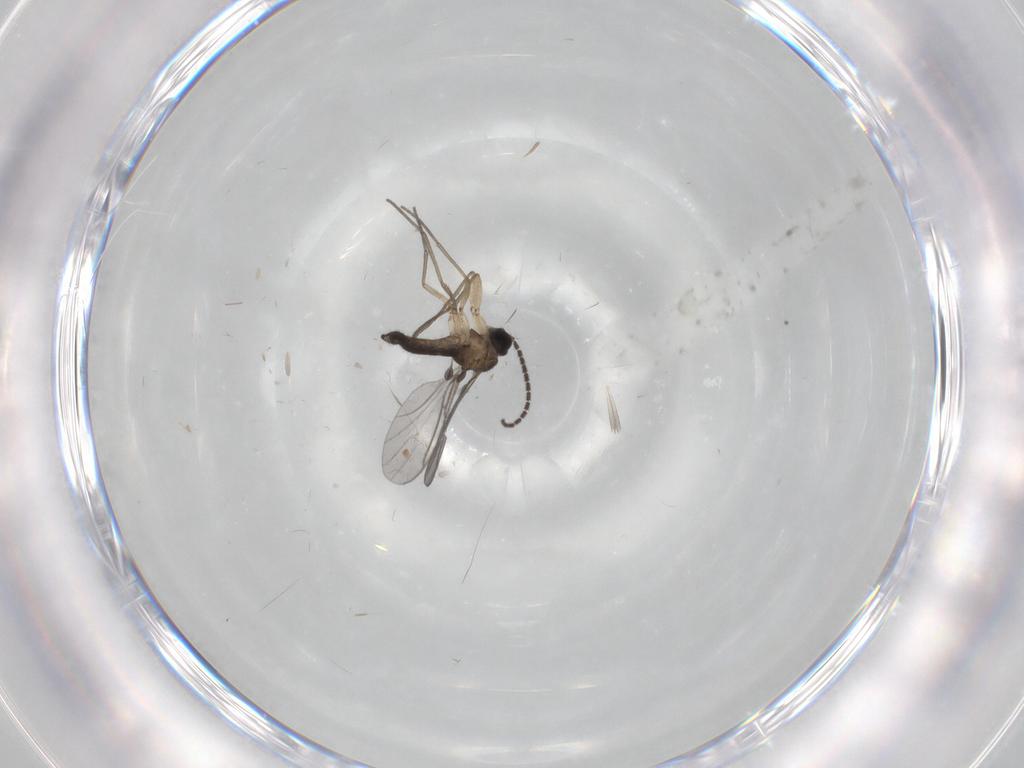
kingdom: Animalia
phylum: Arthropoda
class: Insecta
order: Diptera
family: Sciaridae
